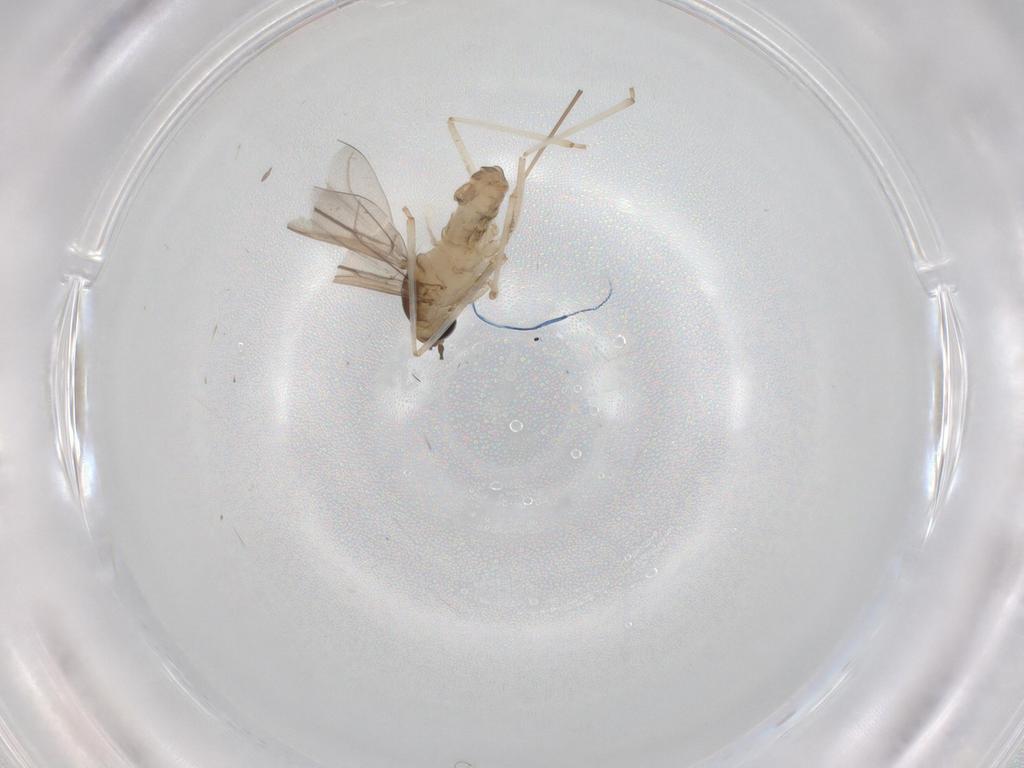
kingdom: Animalia
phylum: Arthropoda
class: Insecta
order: Diptera
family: Cecidomyiidae
